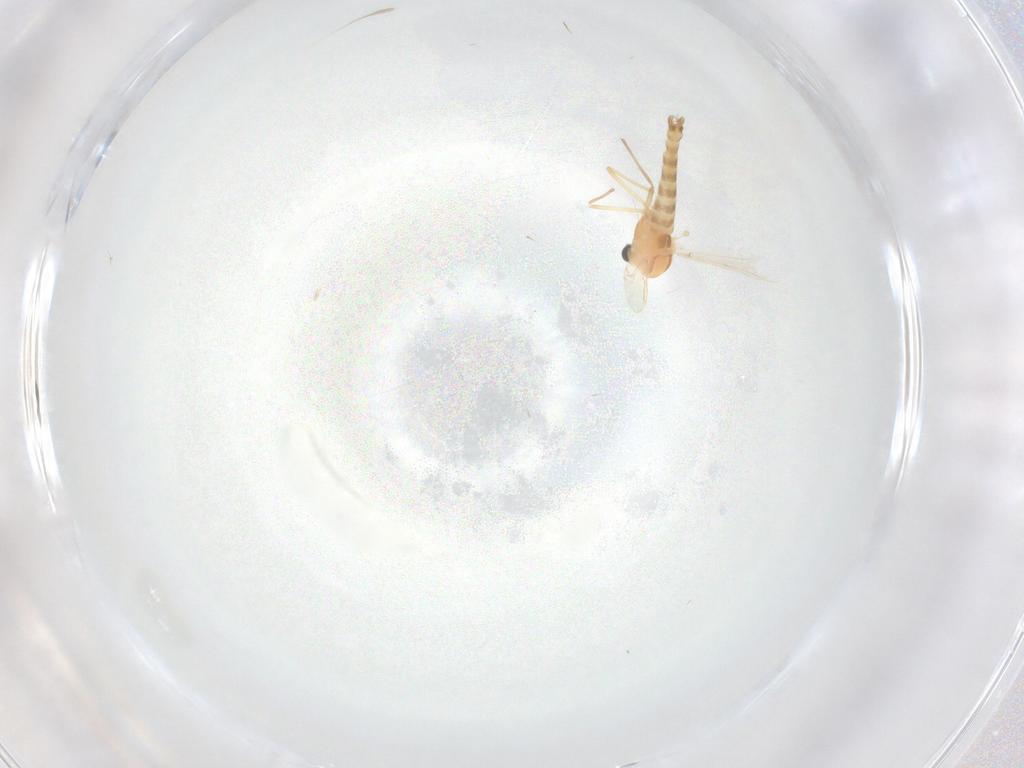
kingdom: Animalia
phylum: Arthropoda
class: Insecta
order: Diptera
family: Chironomidae
